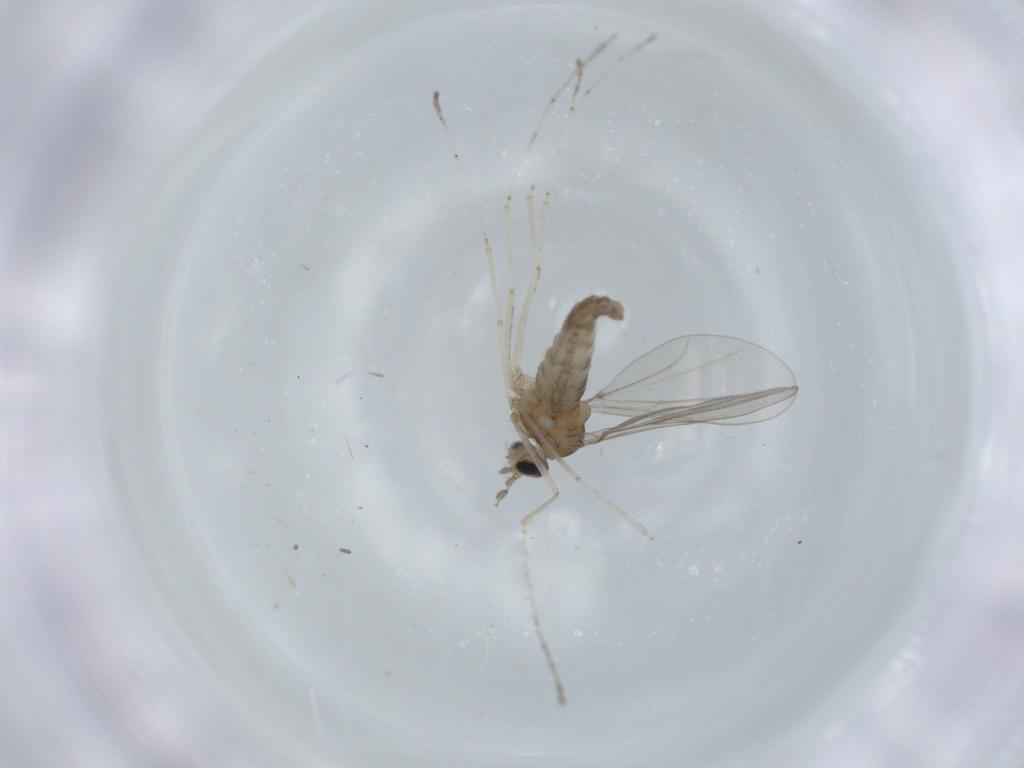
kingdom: Animalia
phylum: Arthropoda
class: Insecta
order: Diptera
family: Cecidomyiidae
